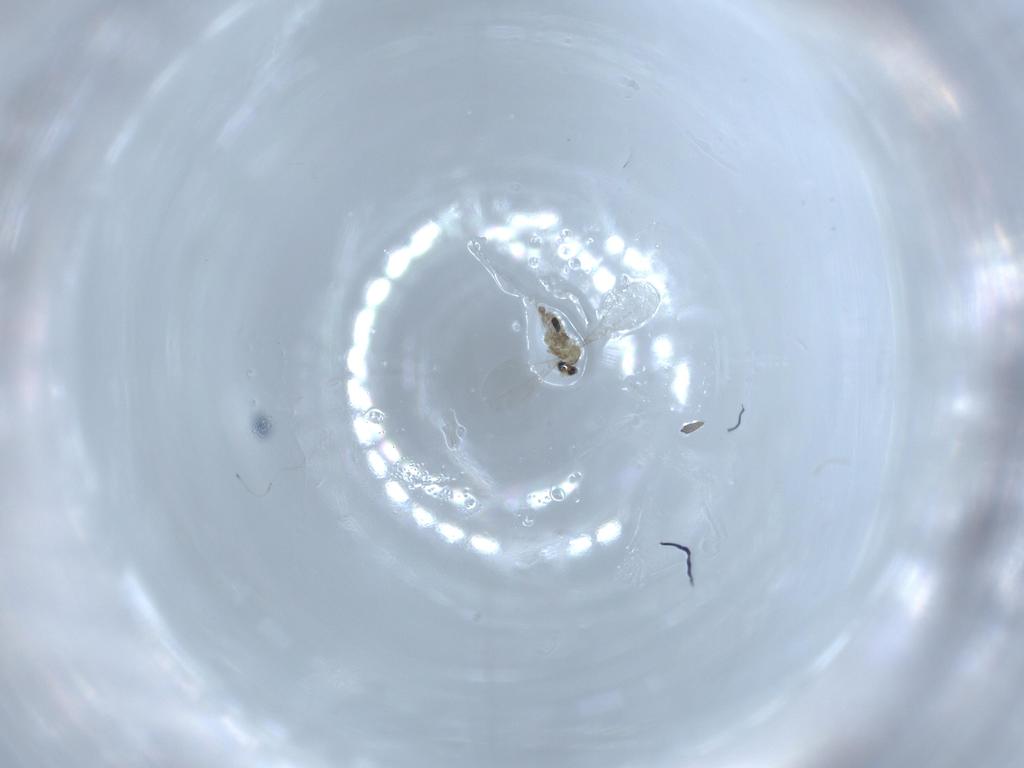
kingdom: Animalia
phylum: Arthropoda
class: Insecta
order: Diptera
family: Cecidomyiidae
